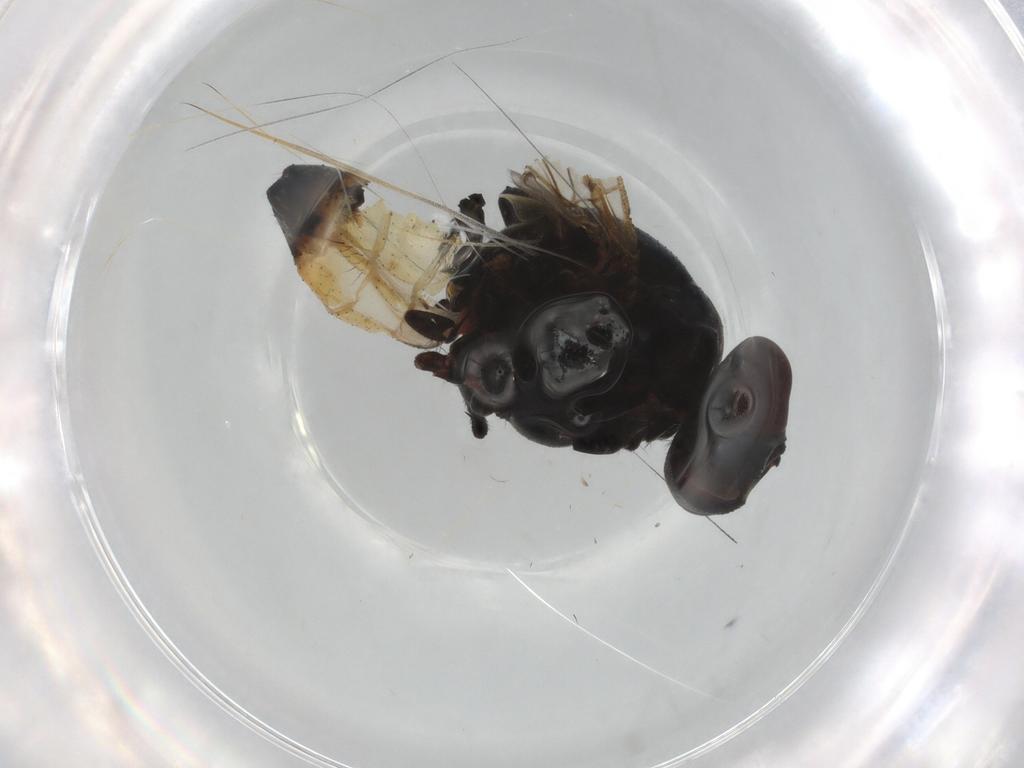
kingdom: Animalia
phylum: Arthropoda
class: Insecta
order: Diptera
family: Muscidae
